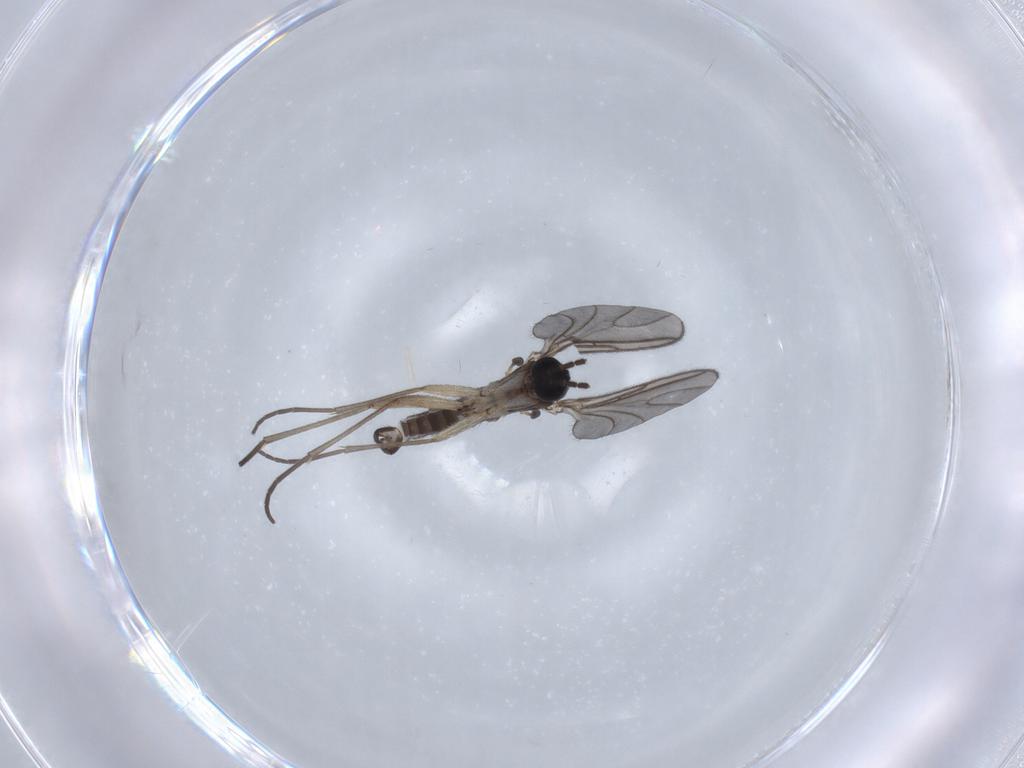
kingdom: Animalia
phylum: Arthropoda
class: Insecta
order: Diptera
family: Sciaridae
